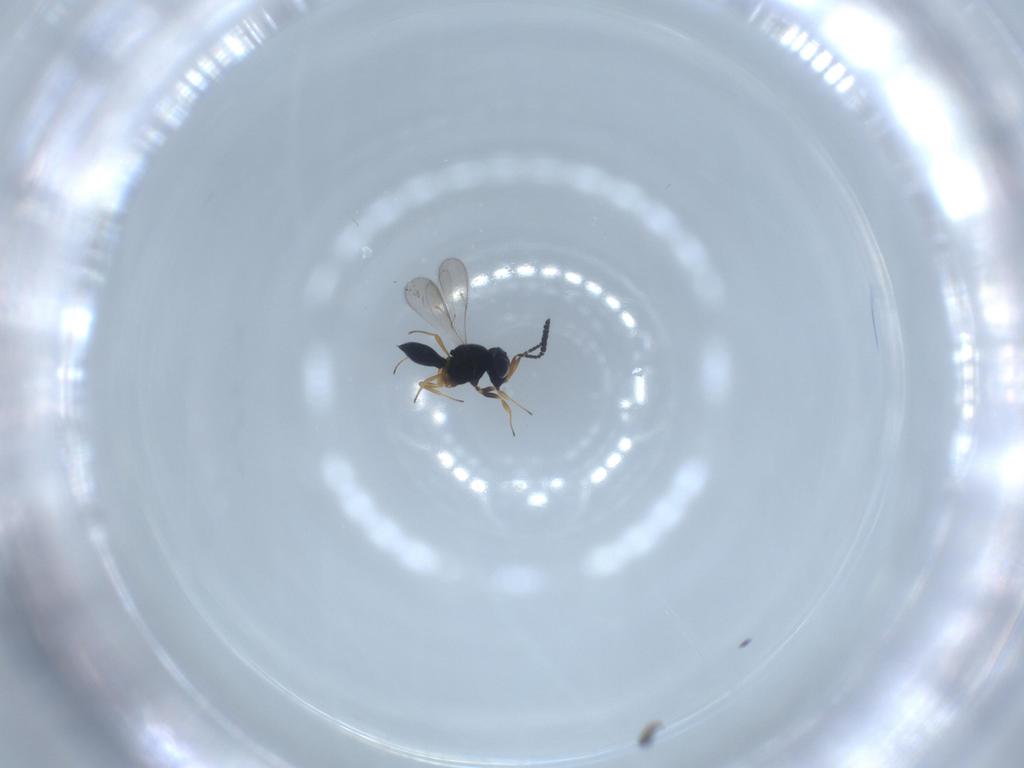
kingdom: Animalia
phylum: Arthropoda
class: Insecta
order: Hymenoptera
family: Scelionidae
